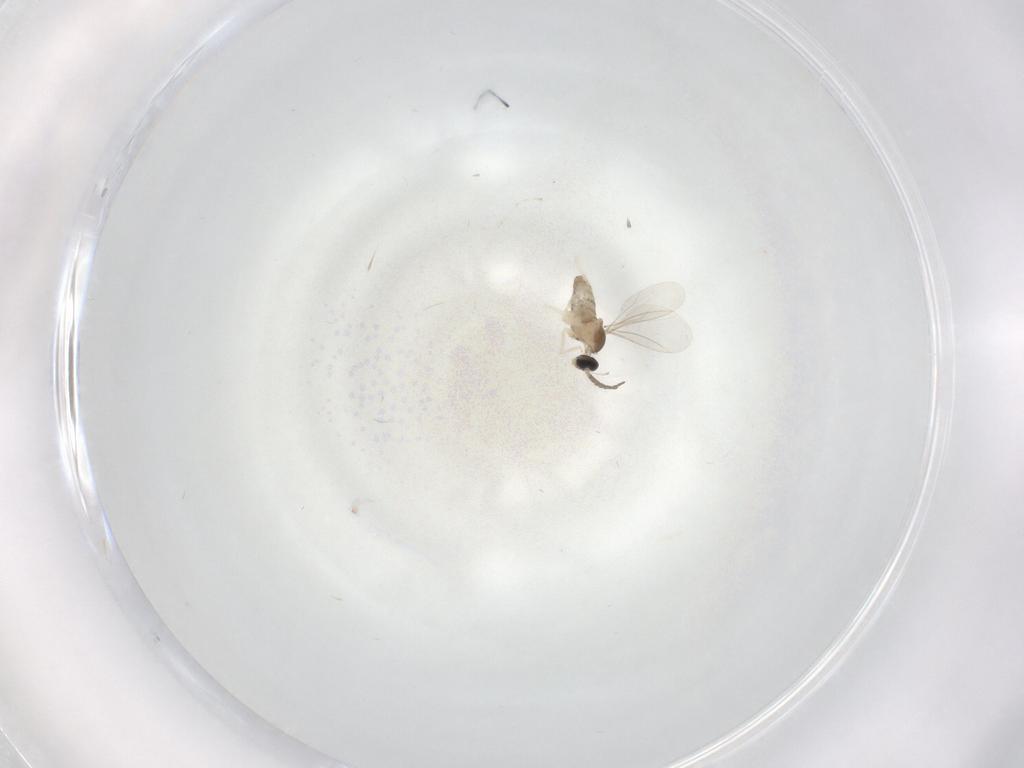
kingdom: Animalia
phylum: Arthropoda
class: Insecta
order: Diptera
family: Cecidomyiidae
